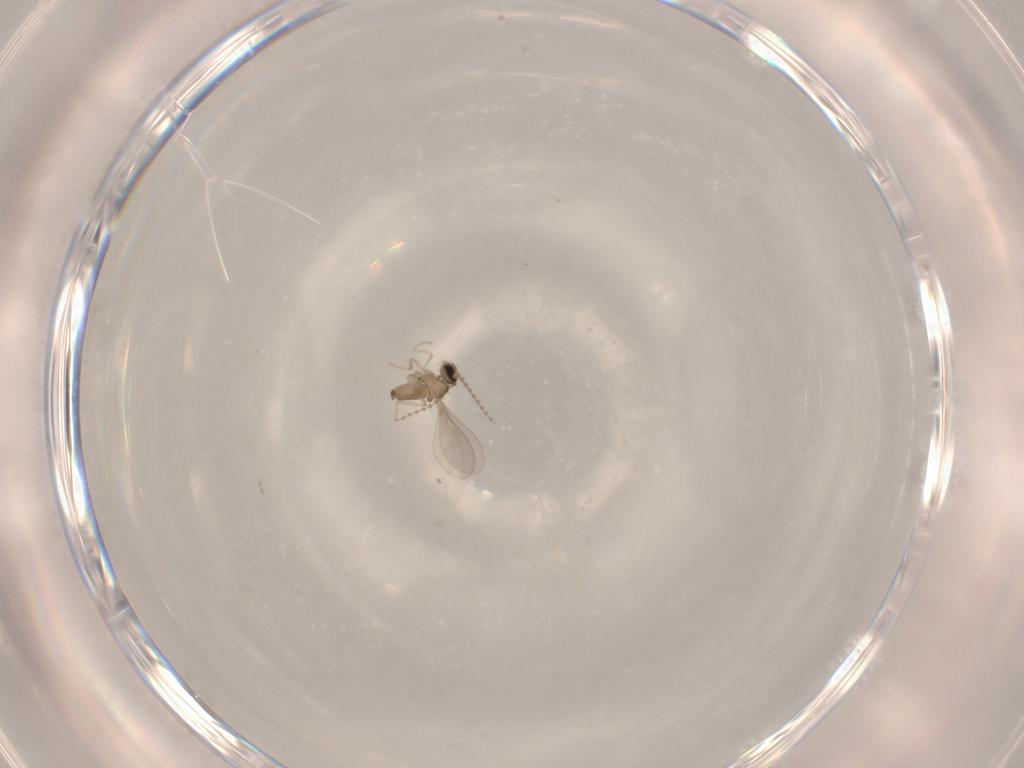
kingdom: Animalia
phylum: Arthropoda
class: Insecta
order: Diptera
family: Cecidomyiidae
